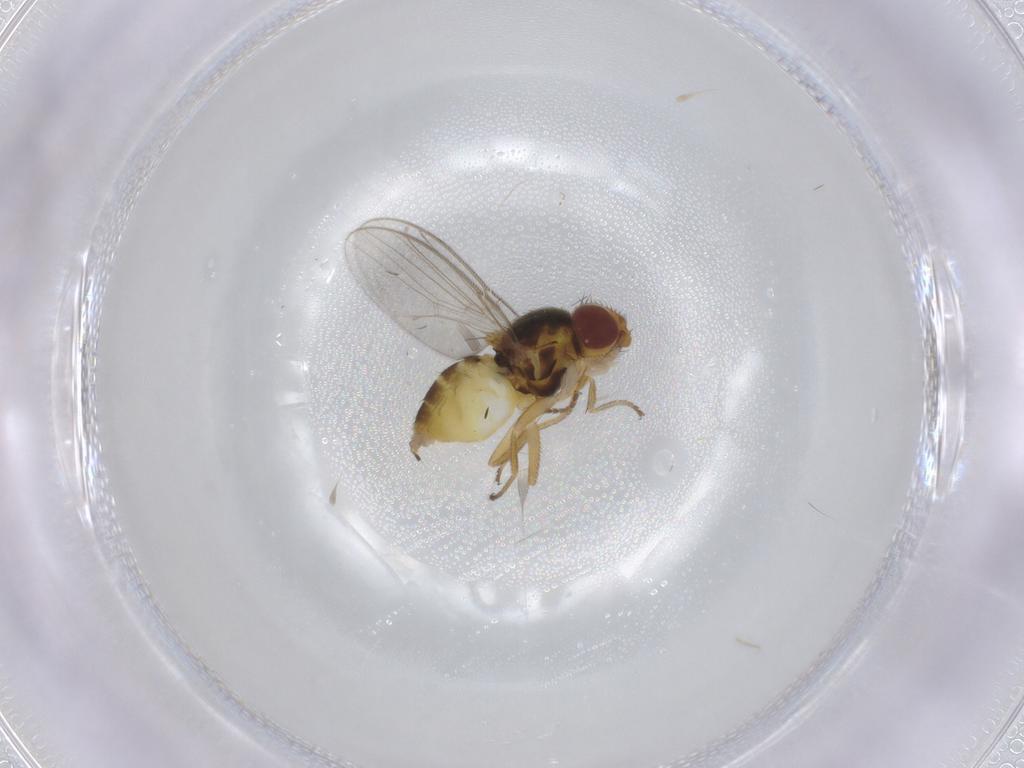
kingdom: Animalia
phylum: Arthropoda
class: Insecta
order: Diptera
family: Chloropidae
